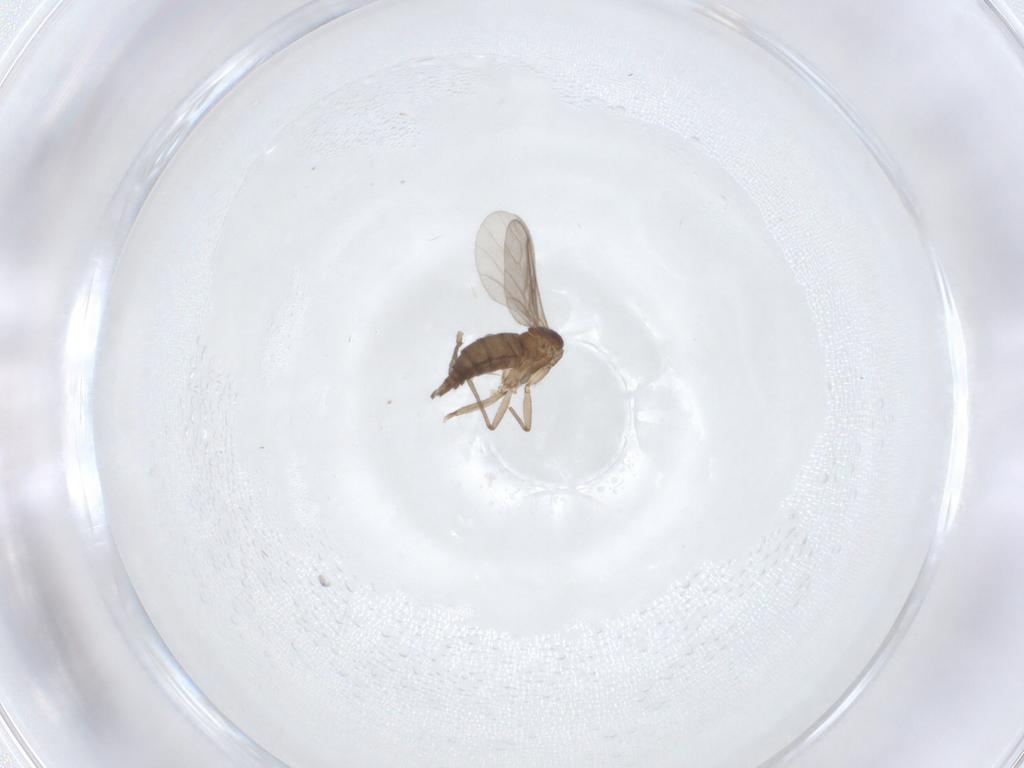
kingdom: Animalia
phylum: Arthropoda
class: Insecta
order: Diptera
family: Sciaridae
